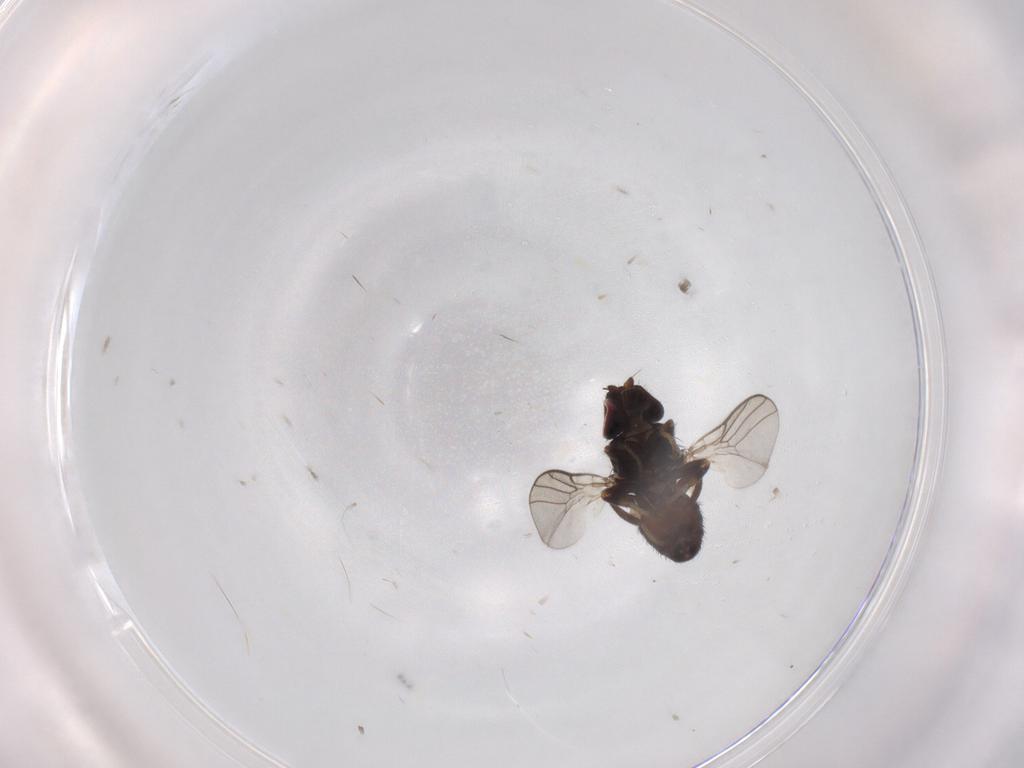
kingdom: Animalia
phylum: Arthropoda
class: Insecta
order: Diptera
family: Chloropidae
